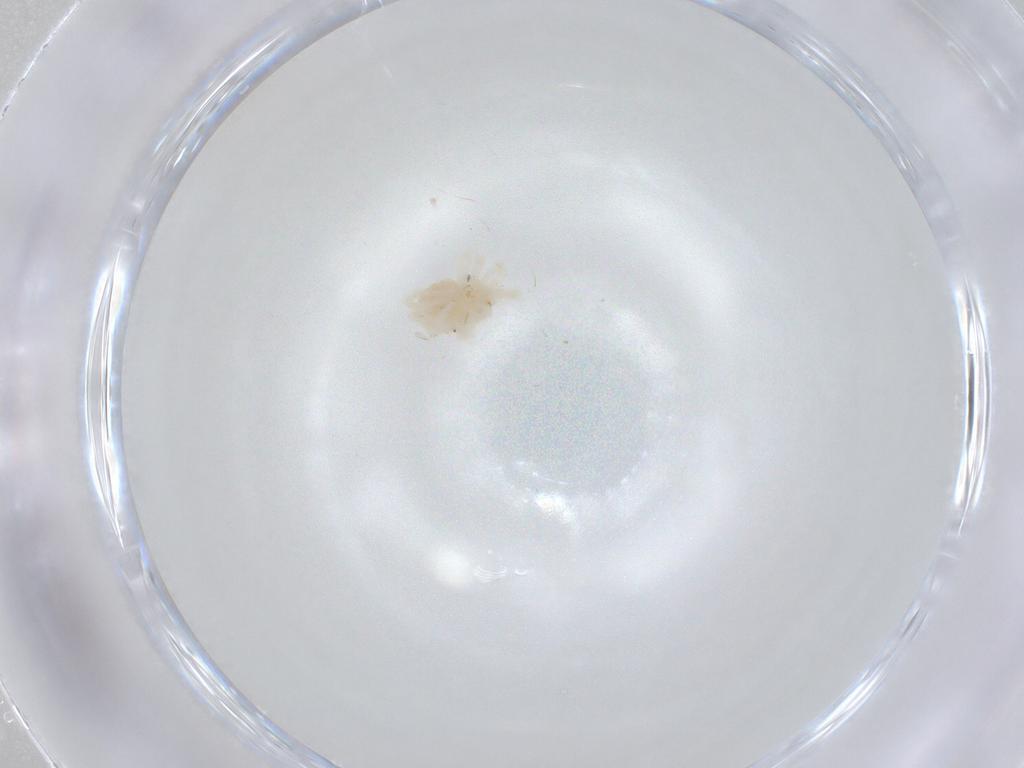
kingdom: Animalia
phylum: Arthropoda
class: Arachnida
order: Trombidiformes
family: Anystidae
